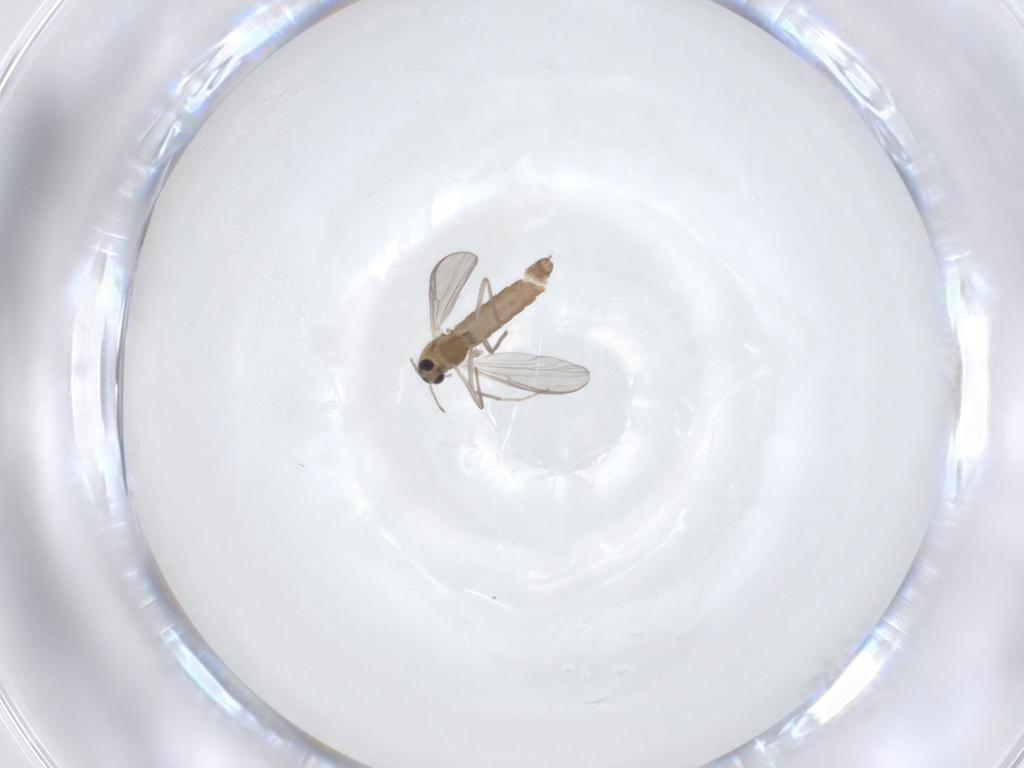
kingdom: Animalia
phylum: Arthropoda
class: Insecta
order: Diptera
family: Chironomidae
